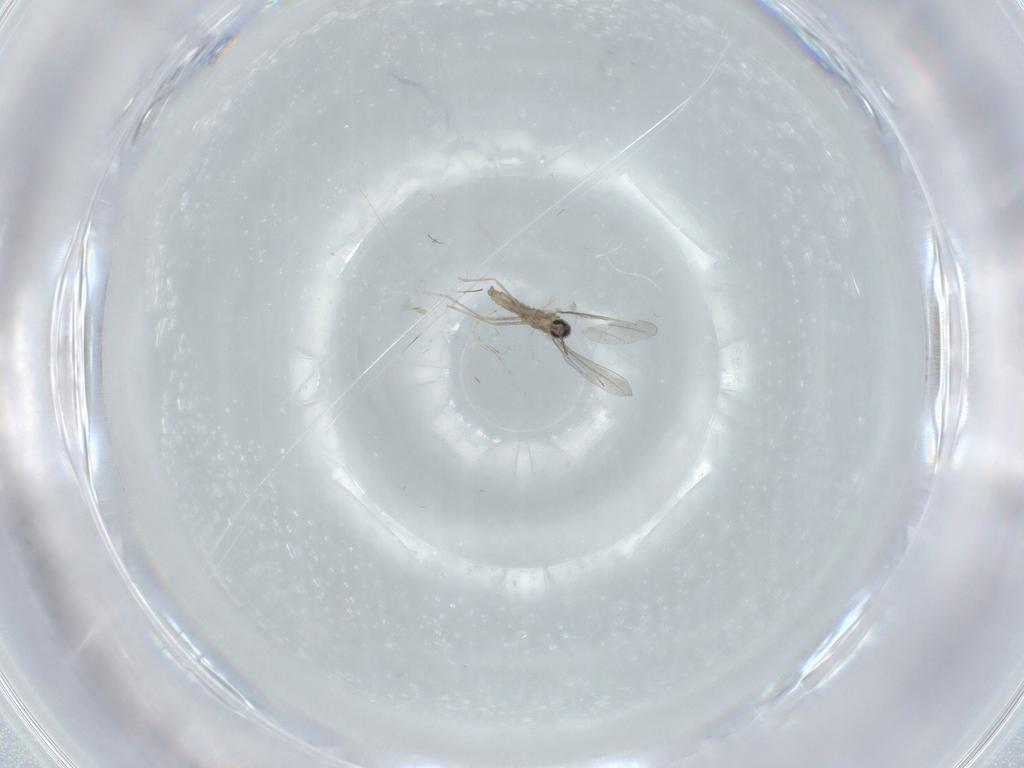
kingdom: Animalia
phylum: Arthropoda
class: Insecta
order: Diptera
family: Cecidomyiidae
